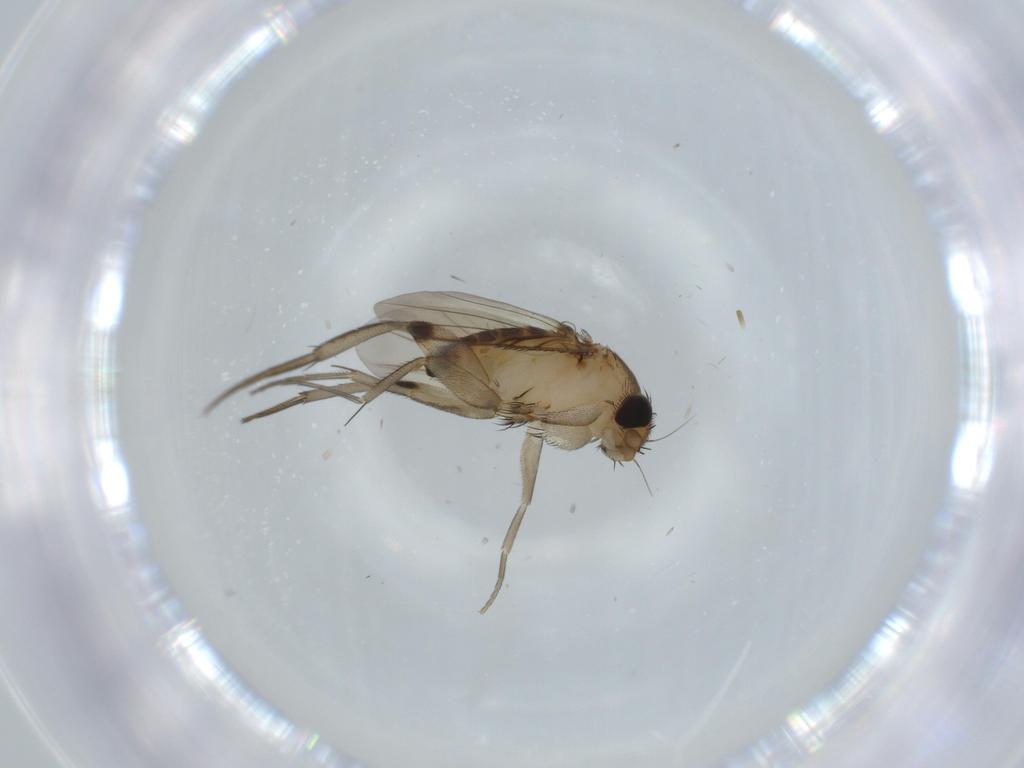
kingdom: Animalia
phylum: Arthropoda
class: Insecta
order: Diptera
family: Phoridae
